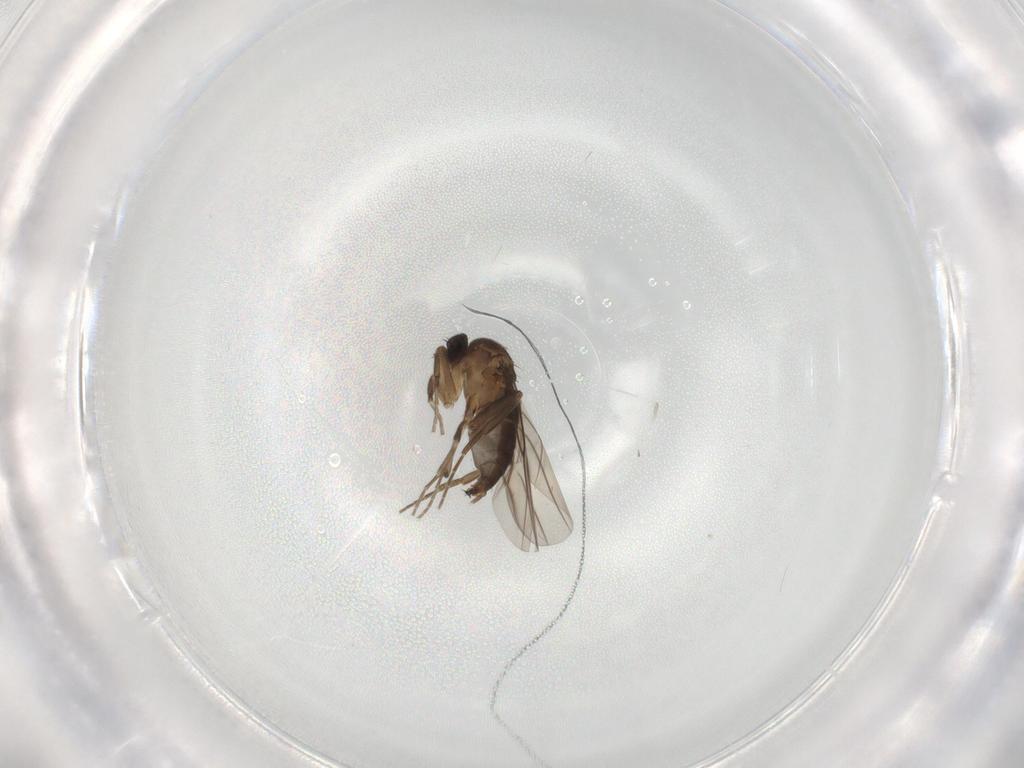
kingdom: Animalia
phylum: Arthropoda
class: Insecta
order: Diptera
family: Phoridae
